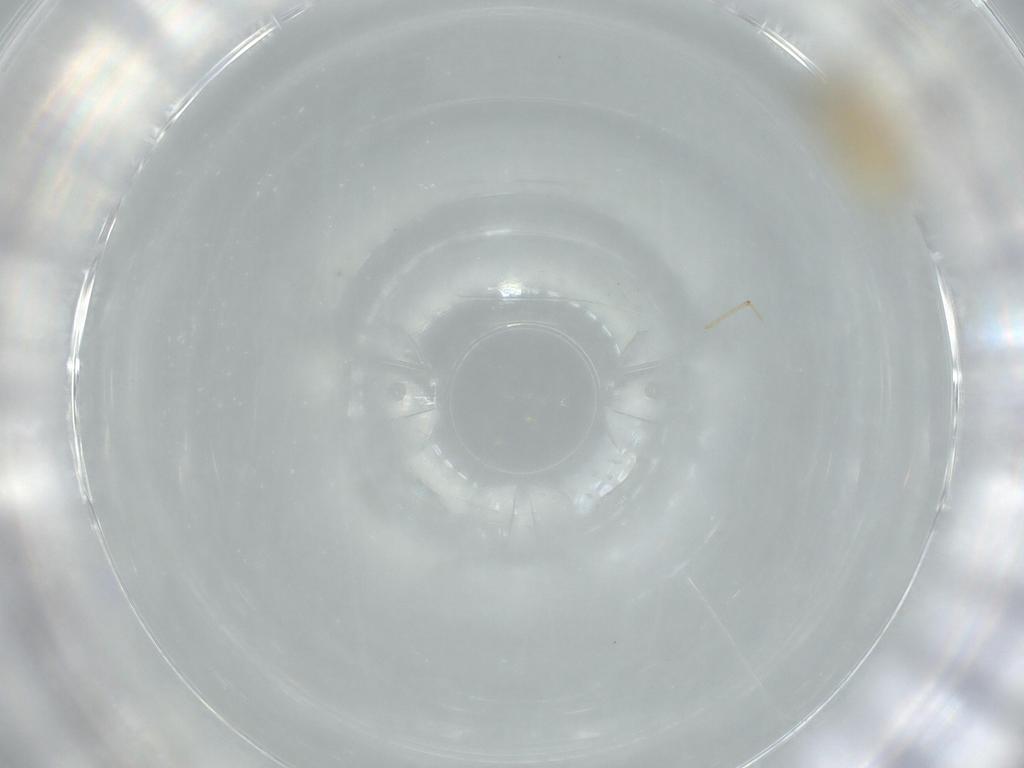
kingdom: Animalia
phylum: Arthropoda
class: Insecta
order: Diptera
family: Chironomidae
